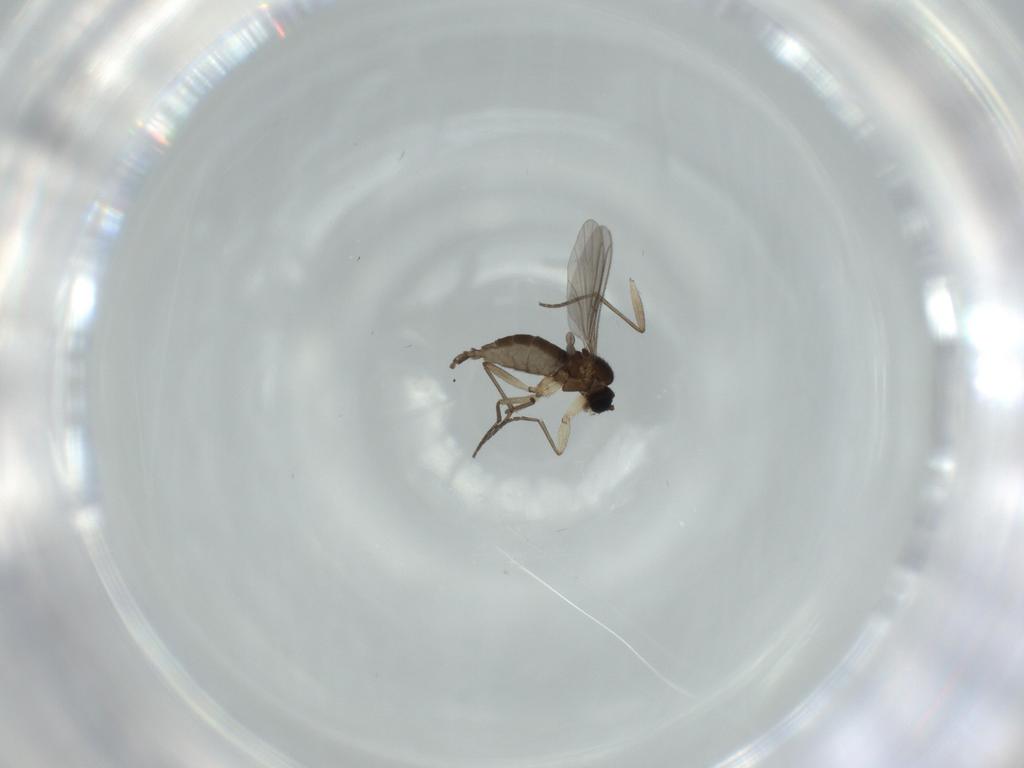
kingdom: Animalia
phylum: Arthropoda
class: Insecta
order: Diptera
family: Sciaridae
